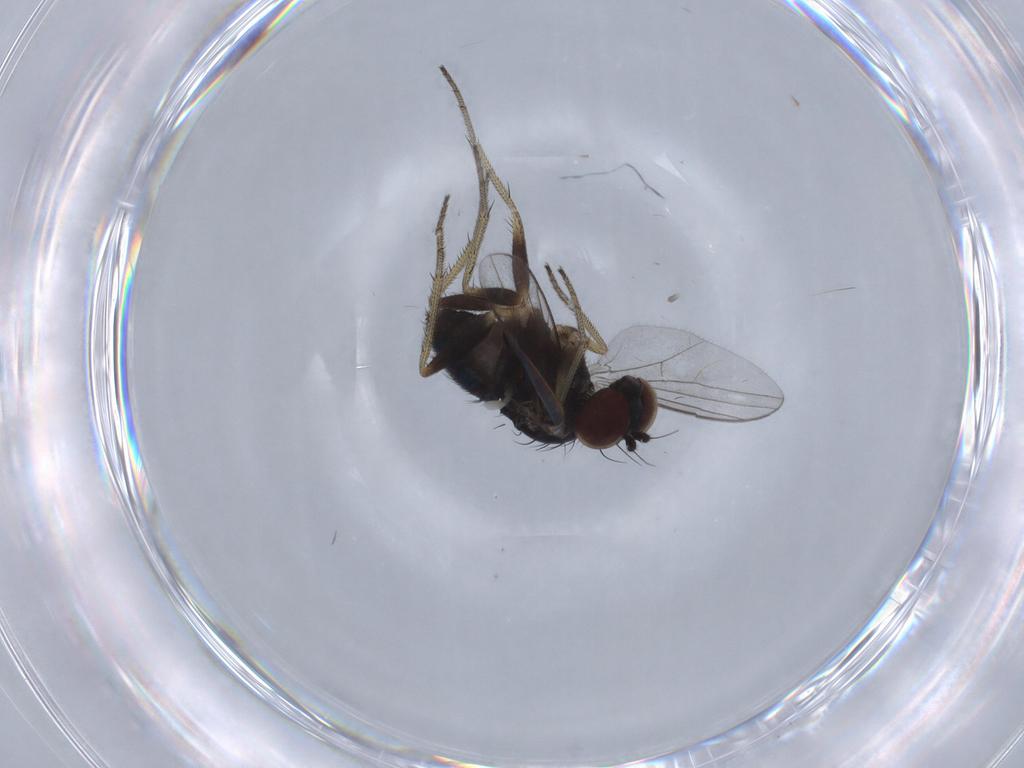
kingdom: Animalia
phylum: Arthropoda
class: Insecta
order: Diptera
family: Dolichopodidae
